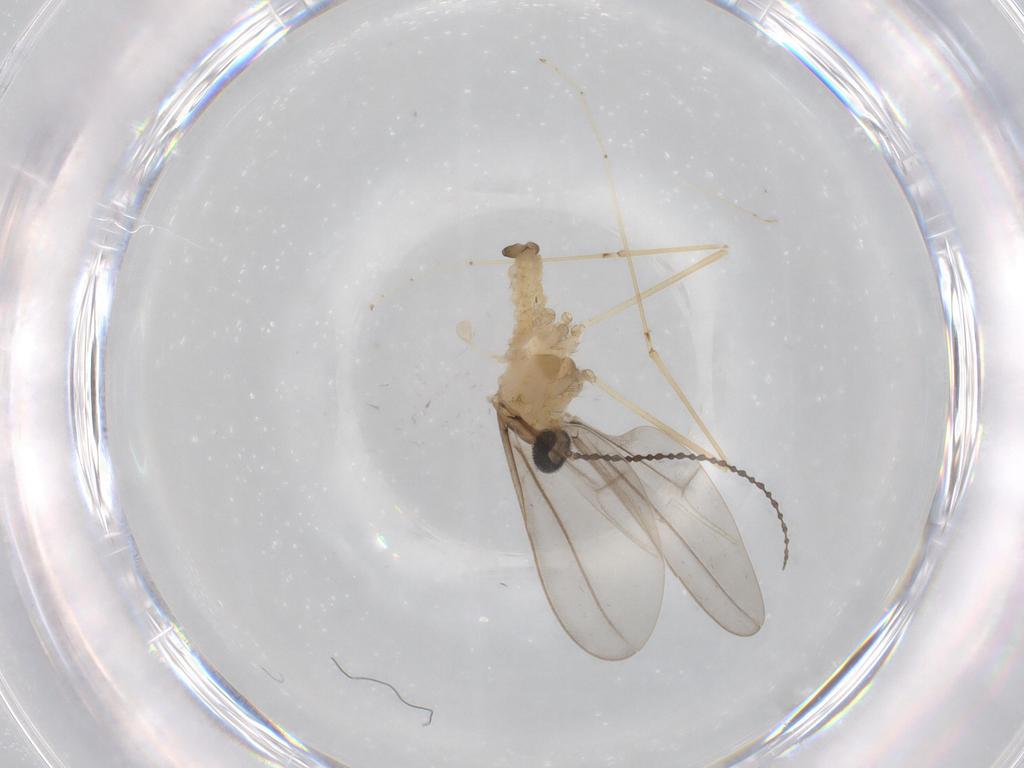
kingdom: Animalia
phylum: Arthropoda
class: Insecta
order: Diptera
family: Cecidomyiidae
